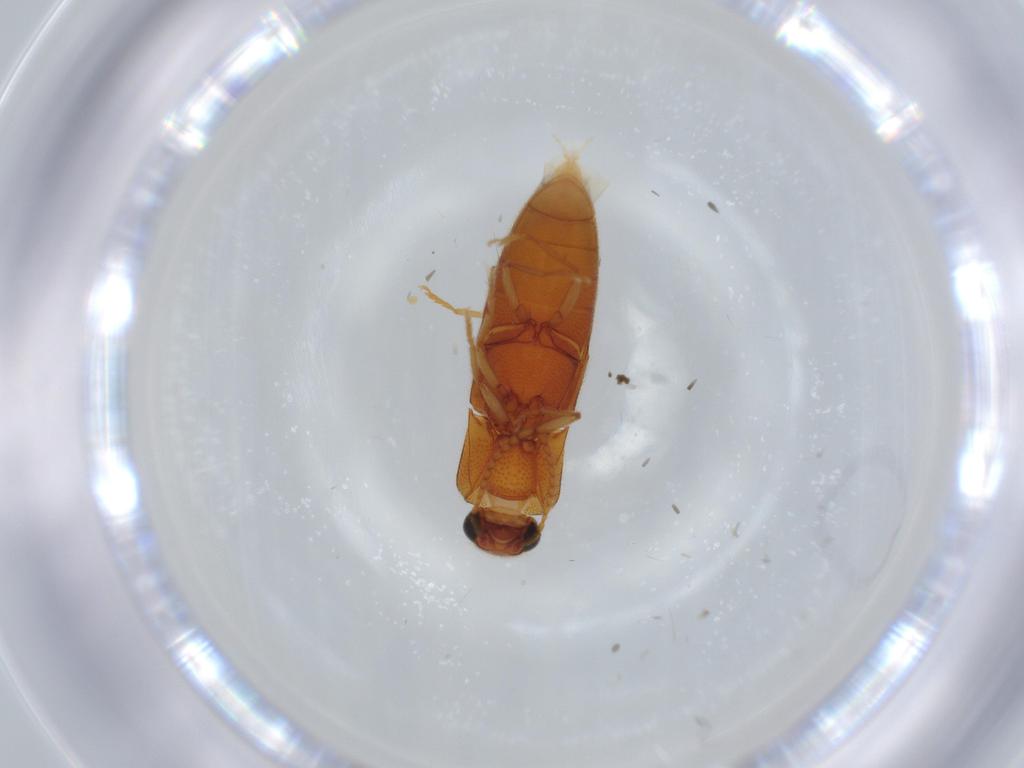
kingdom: Animalia
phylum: Arthropoda
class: Insecta
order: Coleoptera
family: Elateridae
